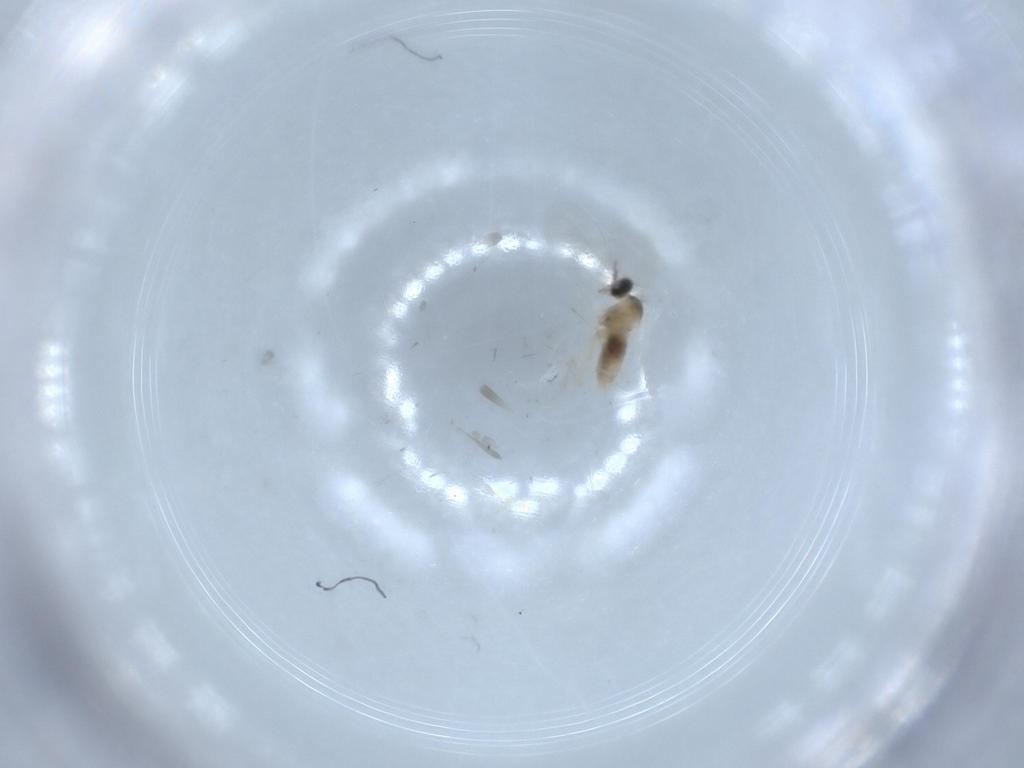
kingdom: Animalia
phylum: Arthropoda
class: Insecta
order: Diptera
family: Cecidomyiidae
